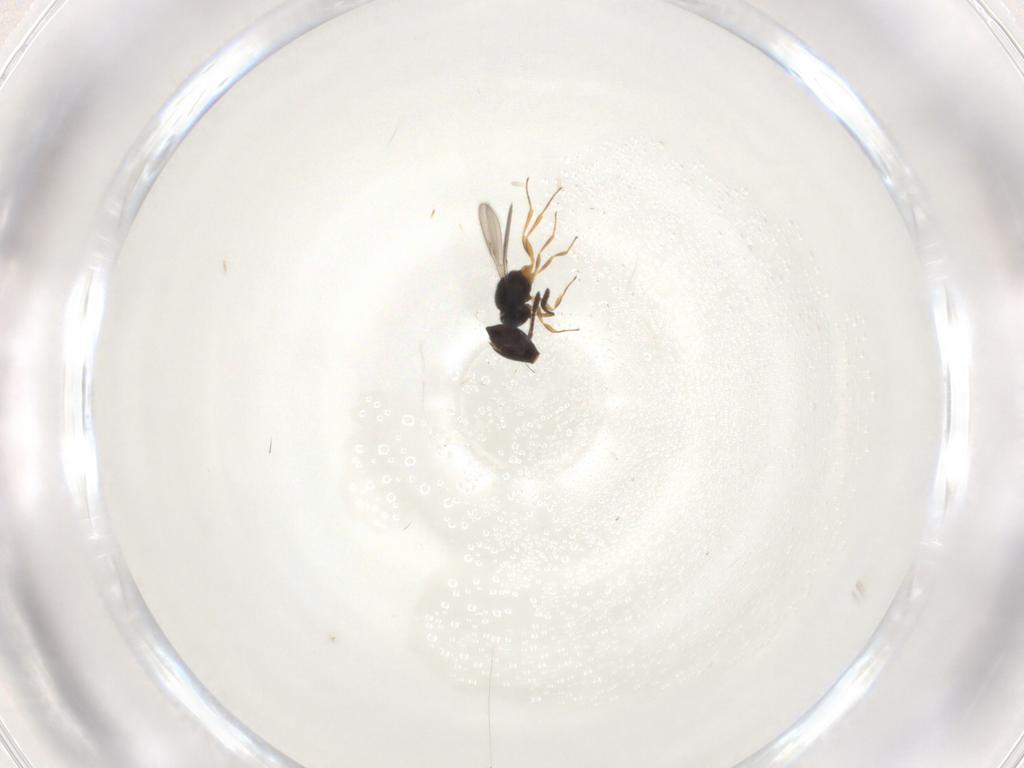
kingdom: Animalia
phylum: Arthropoda
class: Insecta
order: Hymenoptera
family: Scelionidae
